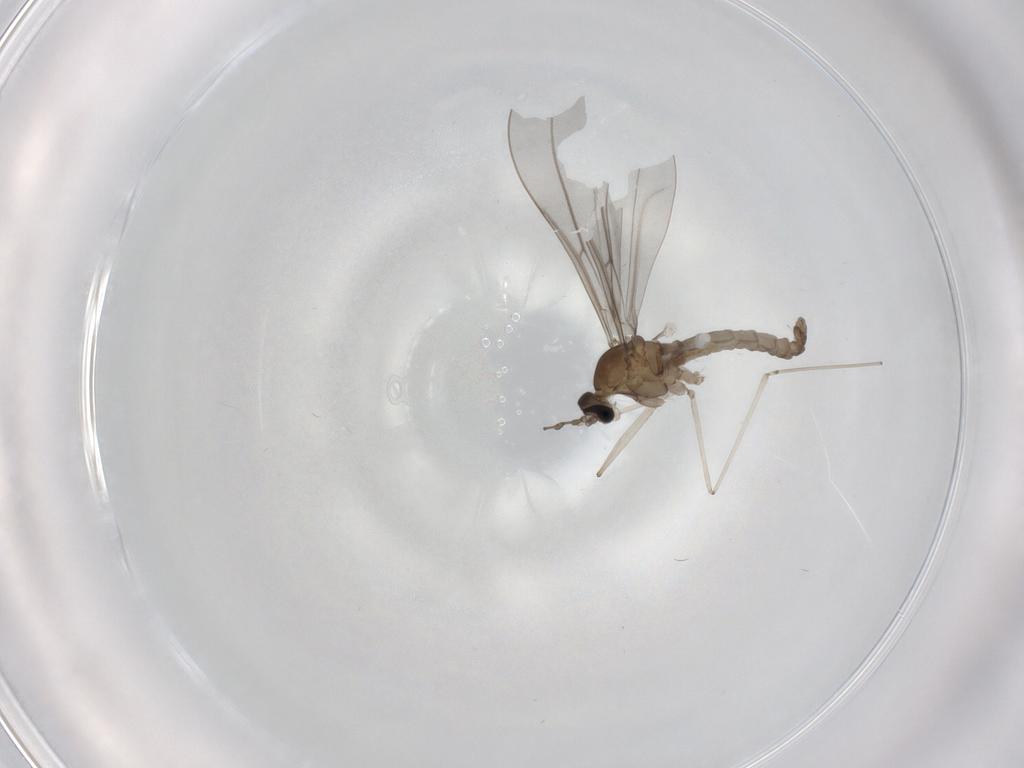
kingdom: Animalia
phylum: Arthropoda
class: Insecta
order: Diptera
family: Cecidomyiidae
